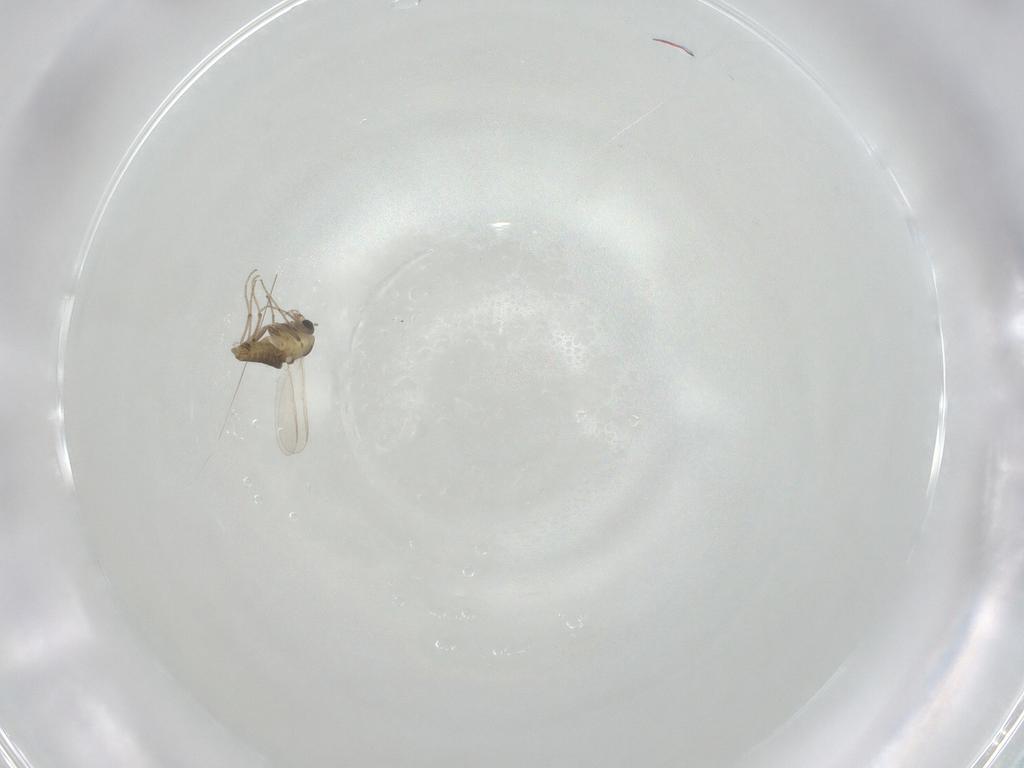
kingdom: Animalia
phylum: Arthropoda
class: Insecta
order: Diptera
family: Chironomidae
